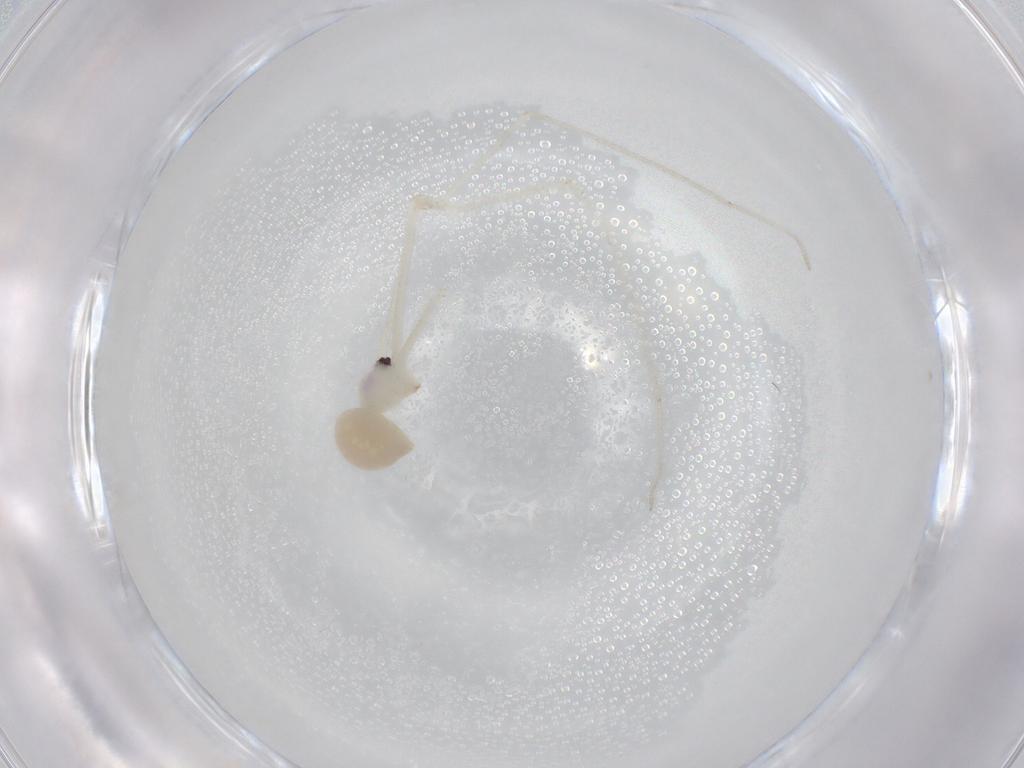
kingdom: Animalia
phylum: Arthropoda
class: Arachnida
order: Araneae
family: Pholcidae
